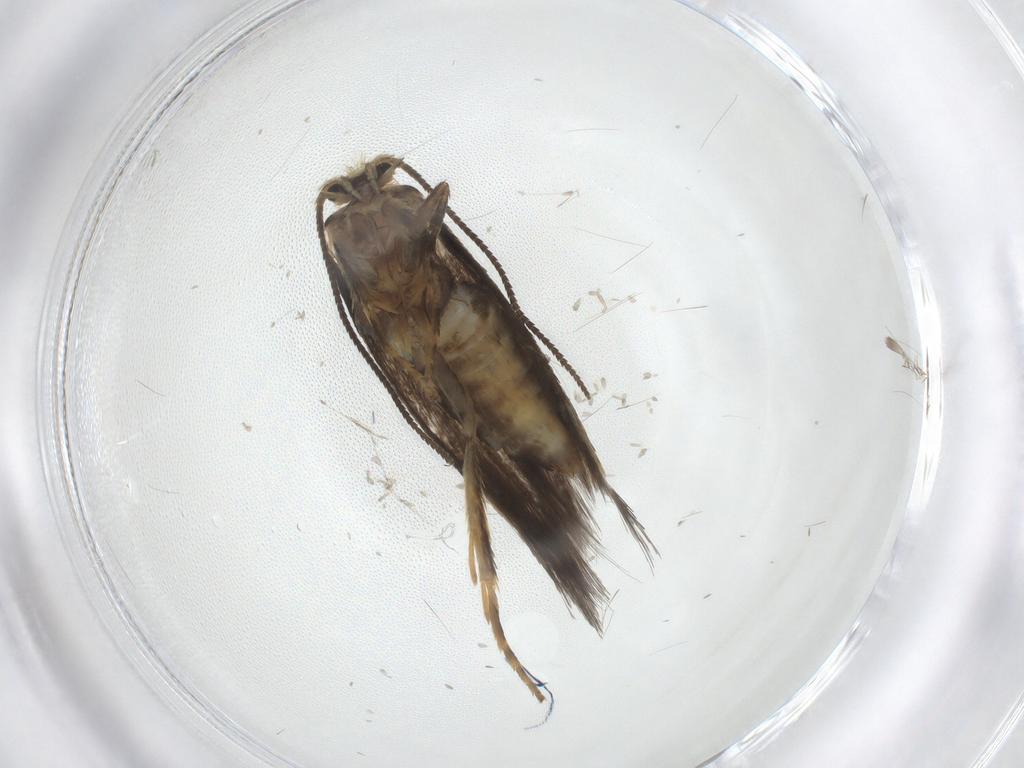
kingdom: Animalia
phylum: Arthropoda
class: Insecta
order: Lepidoptera
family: Nepticulidae
